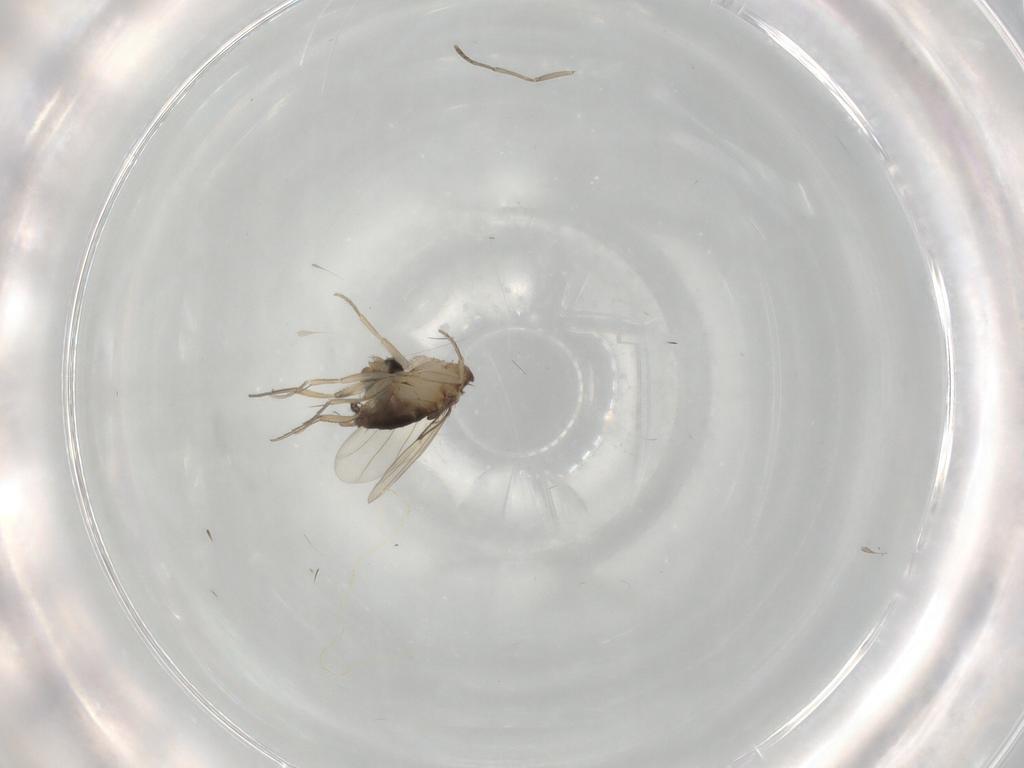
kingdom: Animalia
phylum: Arthropoda
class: Insecta
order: Diptera
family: Cecidomyiidae
